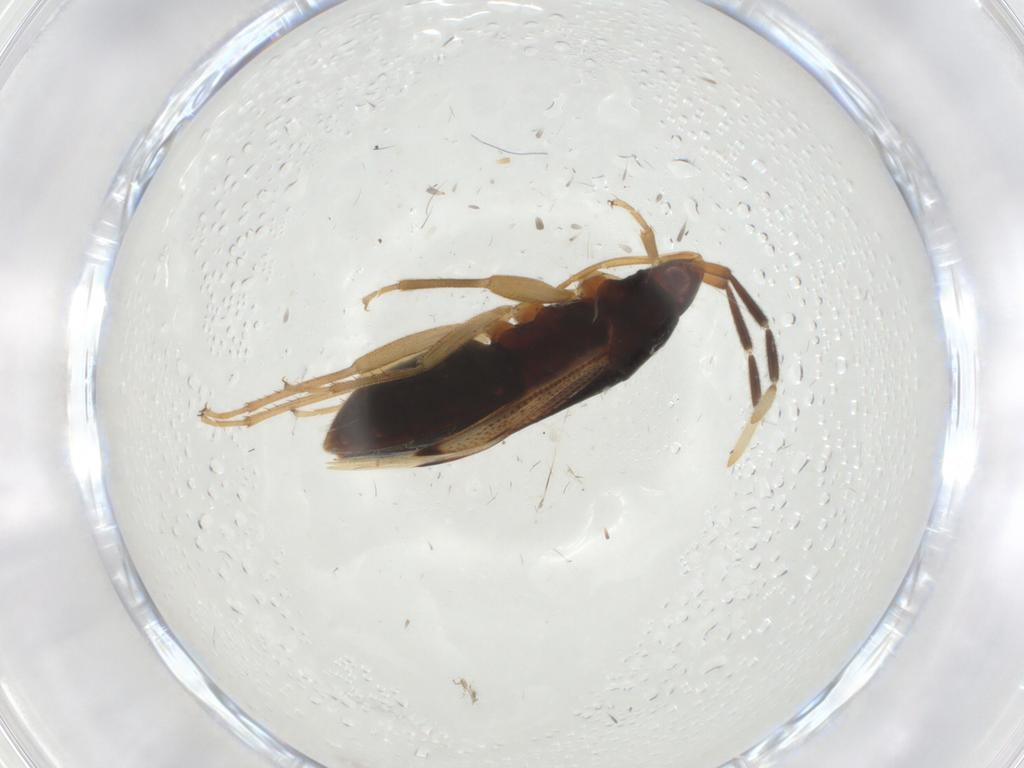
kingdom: Animalia
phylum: Arthropoda
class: Insecta
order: Hemiptera
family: Rhyparochromidae
